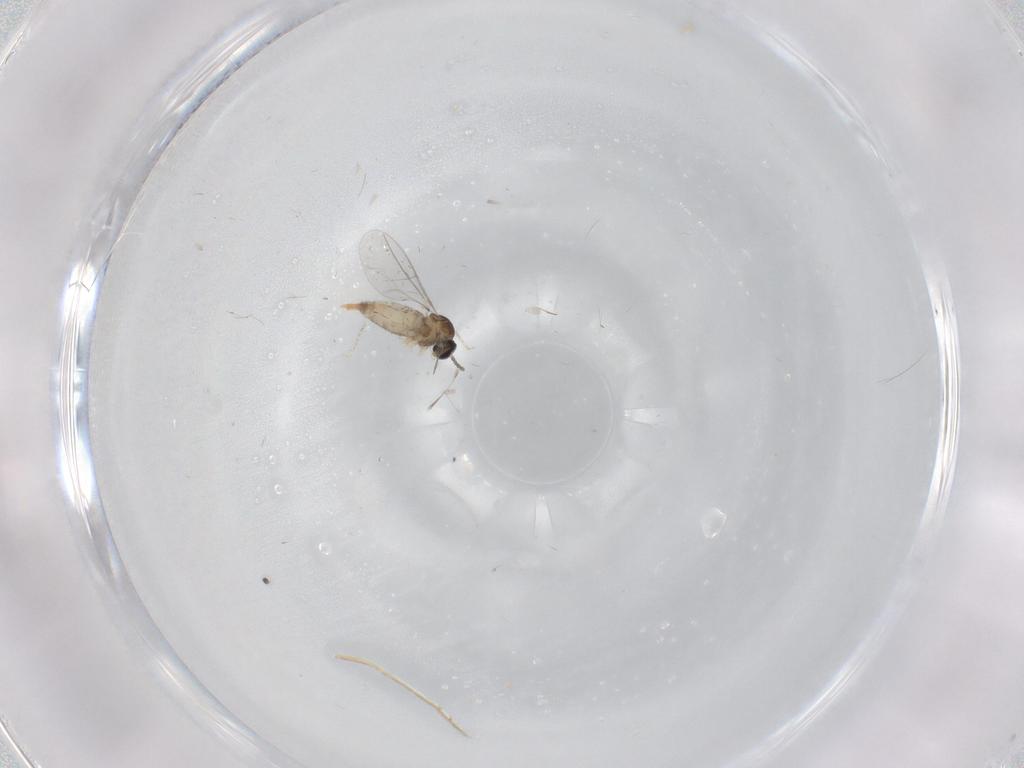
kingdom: Animalia
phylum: Arthropoda
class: Insecta
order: Diptera
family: Cecidomyiidae
